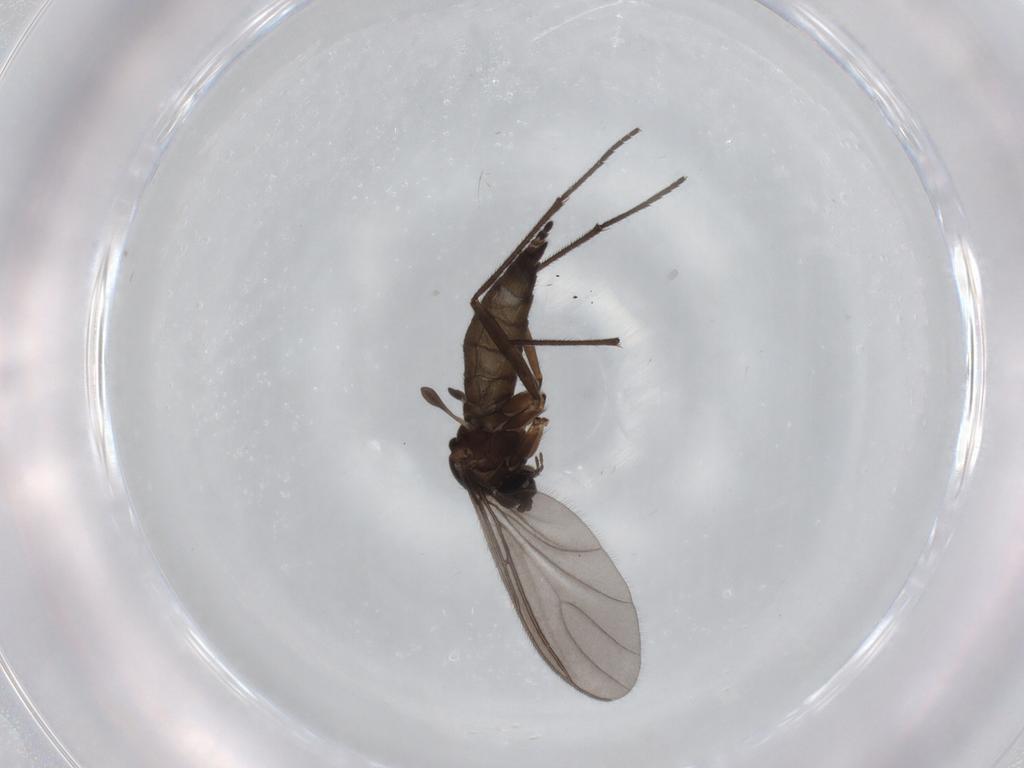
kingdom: Animalia
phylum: Arthropoda
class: Insecta
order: Diptera
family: Sciaridae
